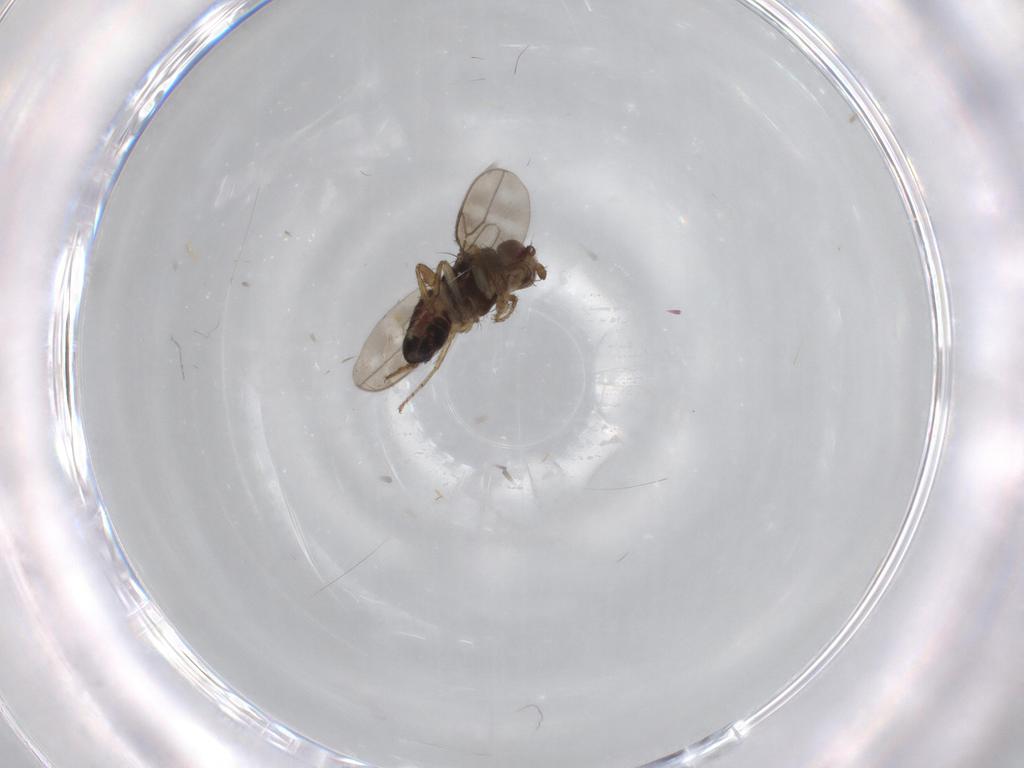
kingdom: Animalia
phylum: Arthropoda
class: Insecta
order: Diptera
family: Sphaeroceridae
